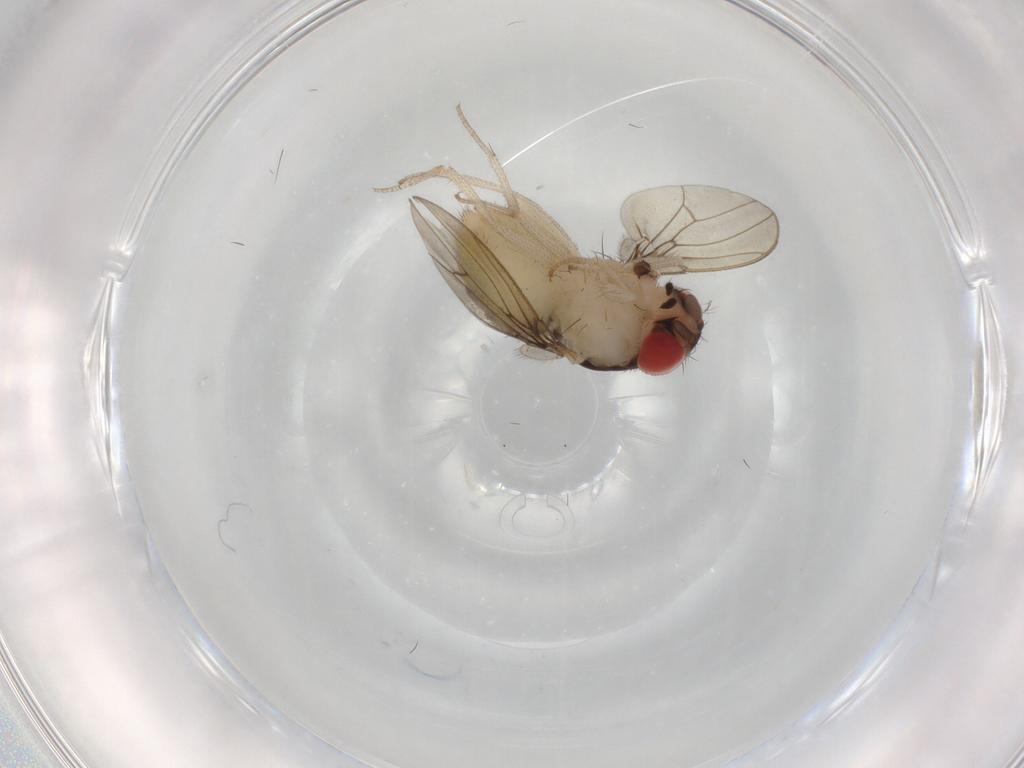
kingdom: Animalia
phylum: Arthropoda
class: Insecta
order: Diptera
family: Drosophilidae
